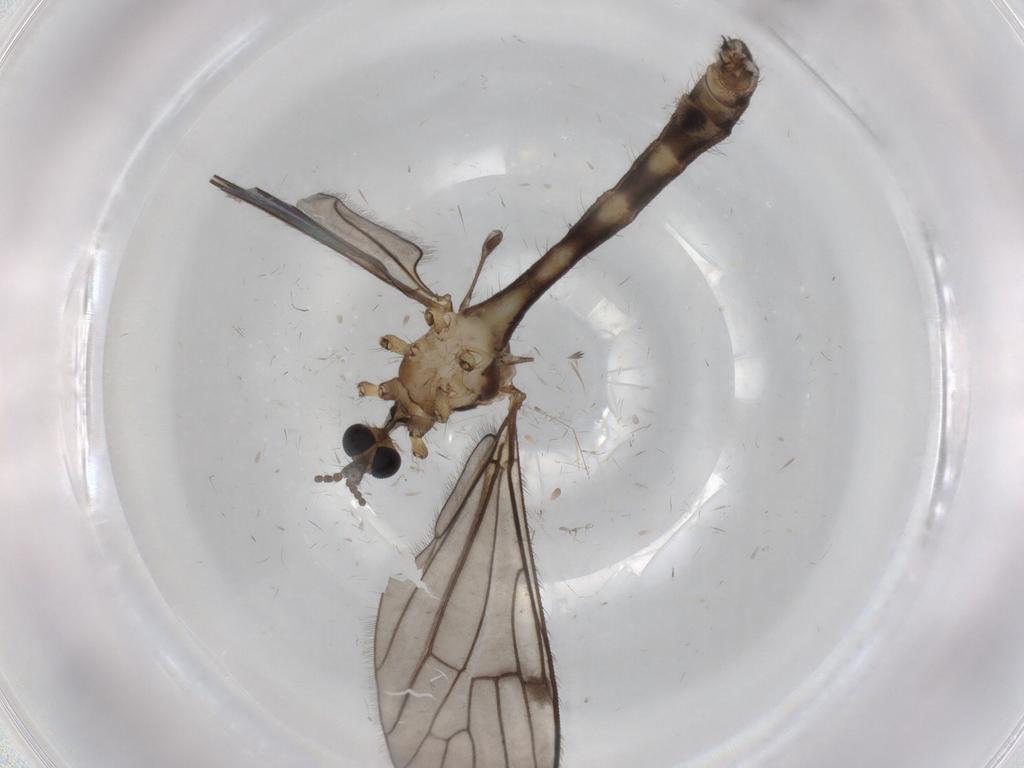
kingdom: Animalia
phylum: Arthropoda
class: Insecta
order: Diptera
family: Limoniidae
